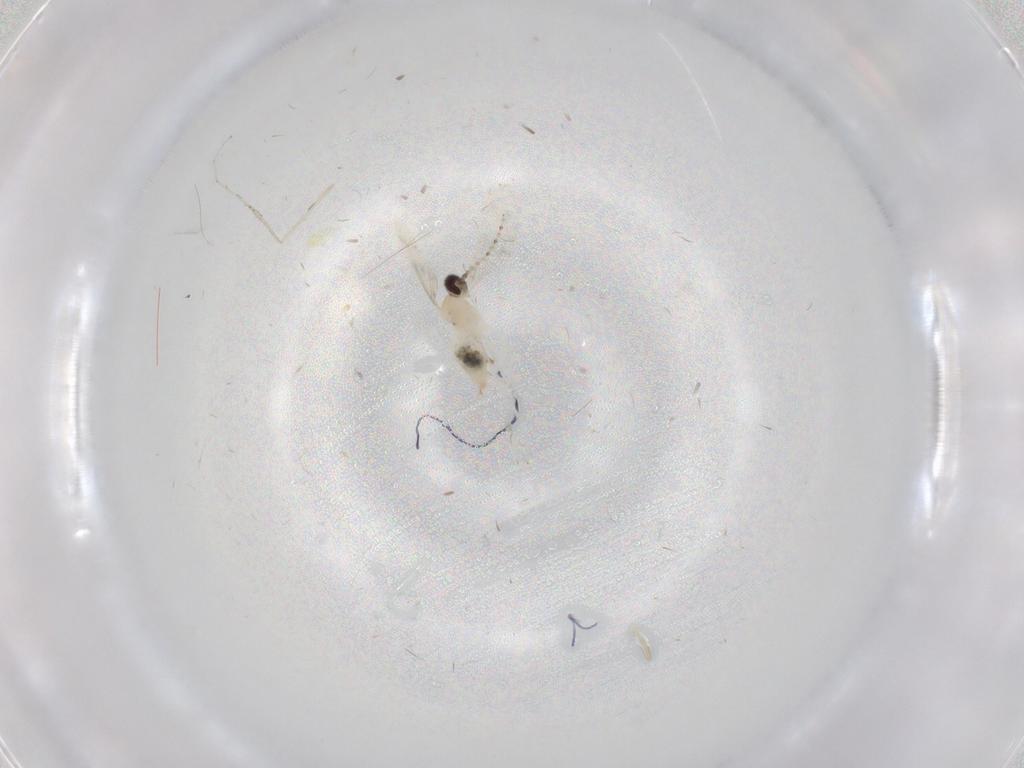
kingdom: Animalia
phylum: Arthropoda
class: Insecta
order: Diptera
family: Cecidomyiidae
